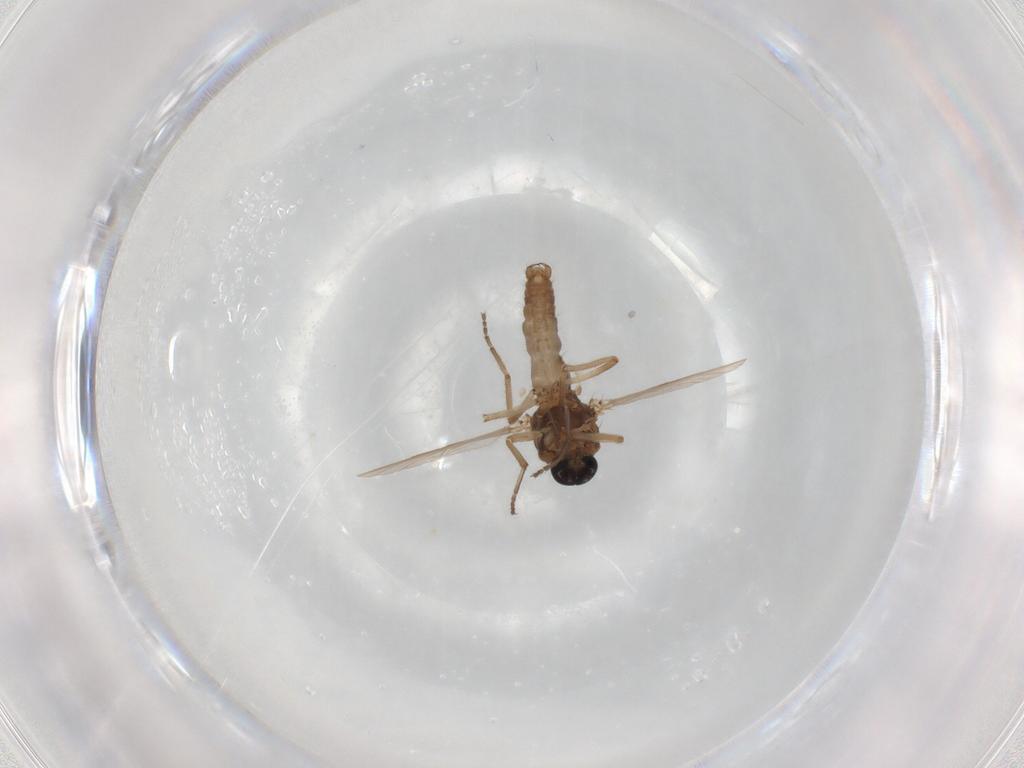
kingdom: Animalia
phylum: Arthropoda
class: Insecta
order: Diptera
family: Ceratopogonidae
